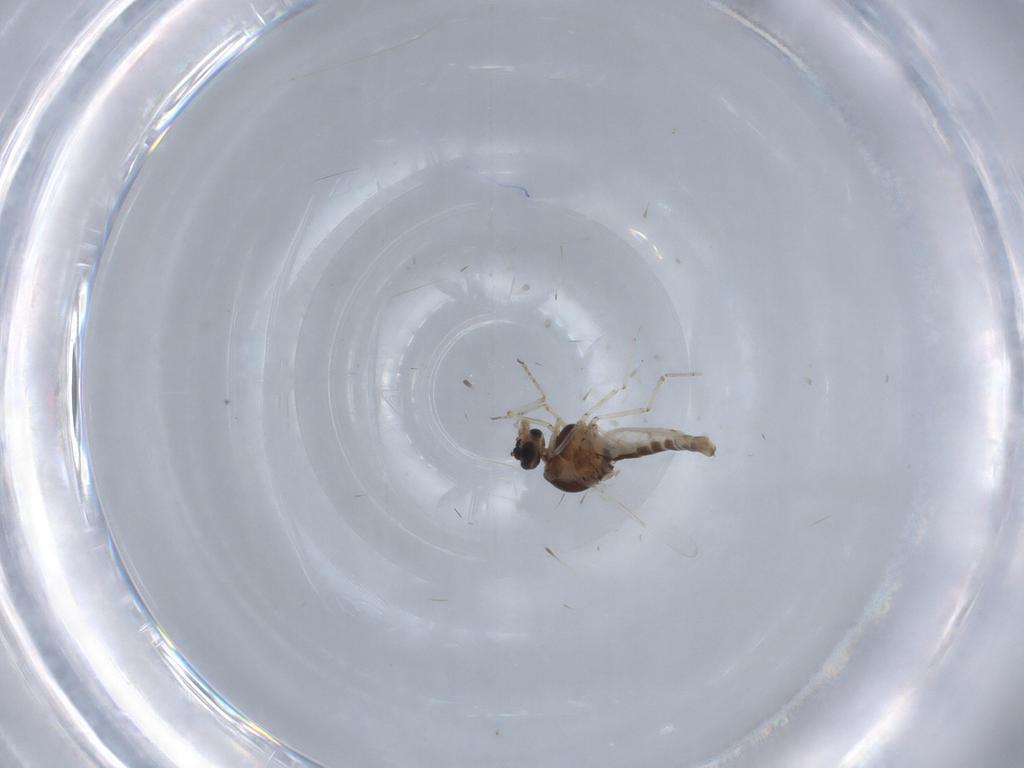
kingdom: Animalia
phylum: Arthropoda
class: Insecta
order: Diptera
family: Ceratopogonidae
